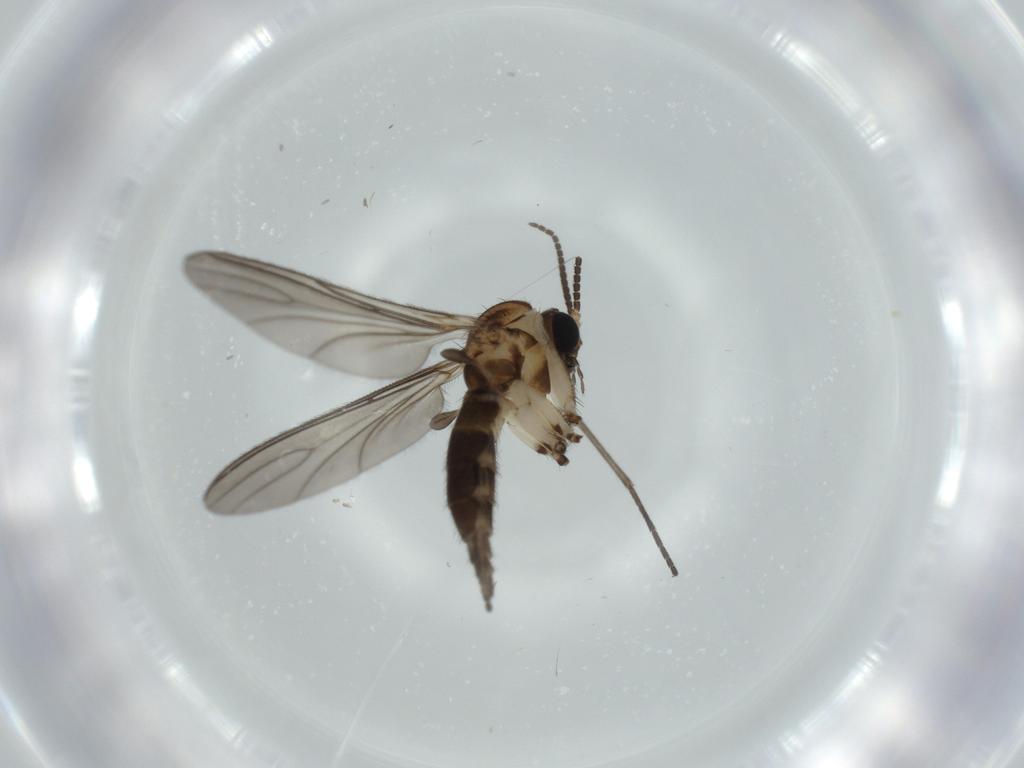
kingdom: Animalia
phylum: Arthropoda
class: Insecta
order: Diptera
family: Sciaridae
